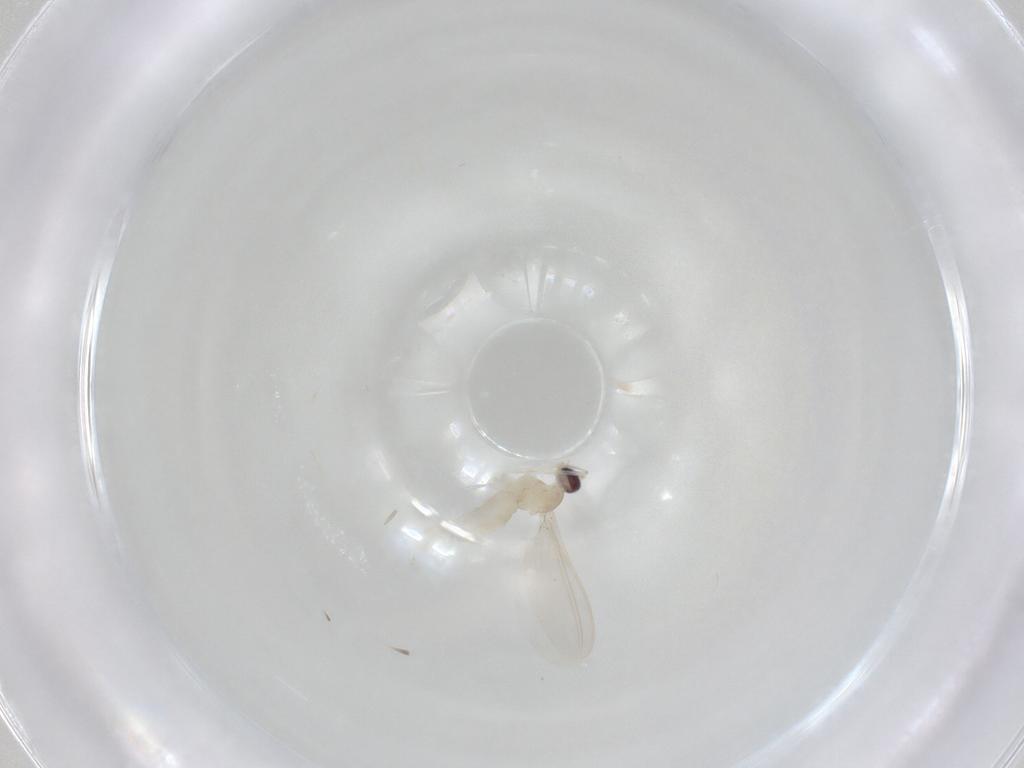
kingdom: Animalia
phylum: Arthropoda
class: Insecta
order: Diptera
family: Cecidomyiidae
